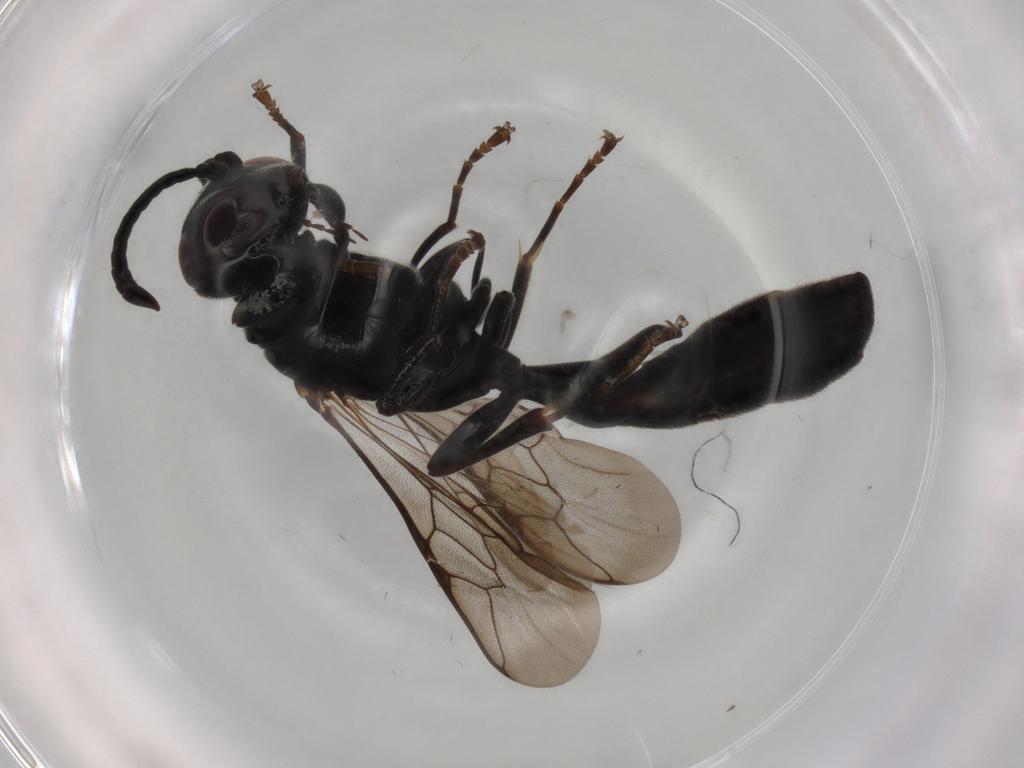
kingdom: Animalia
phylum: Arthropoda
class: Insecta
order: Hymenoptera
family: Crabronidae
